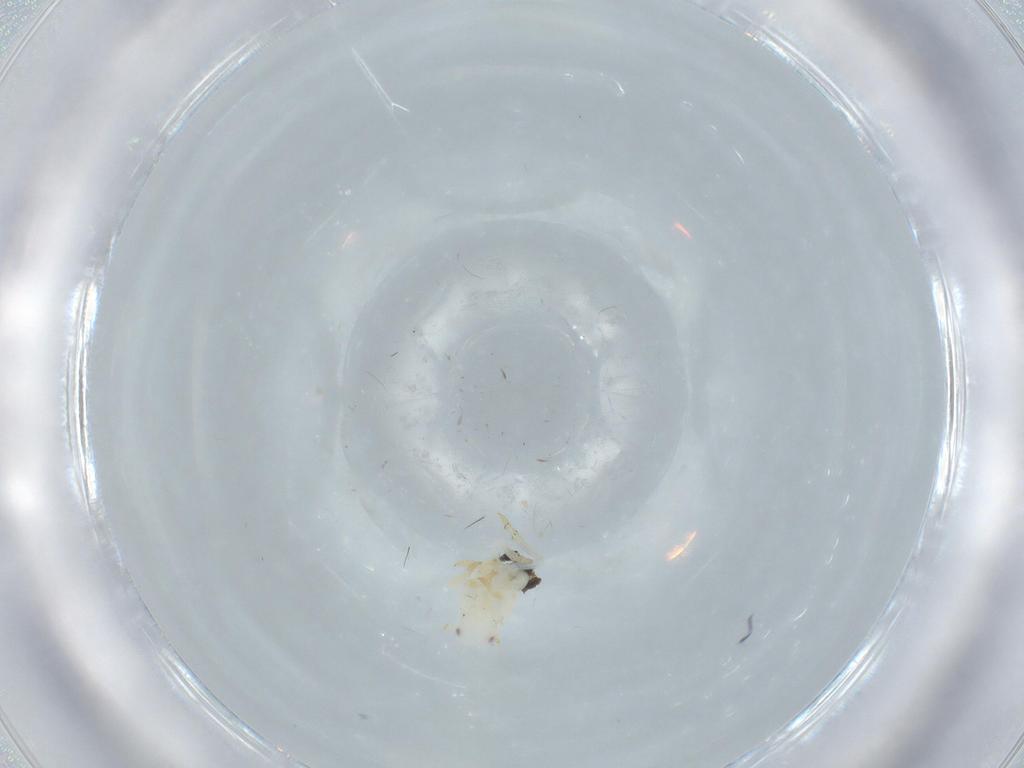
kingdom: Animalia
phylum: Arthropoda
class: Insecta
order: Hemiptera
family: Flatidae
